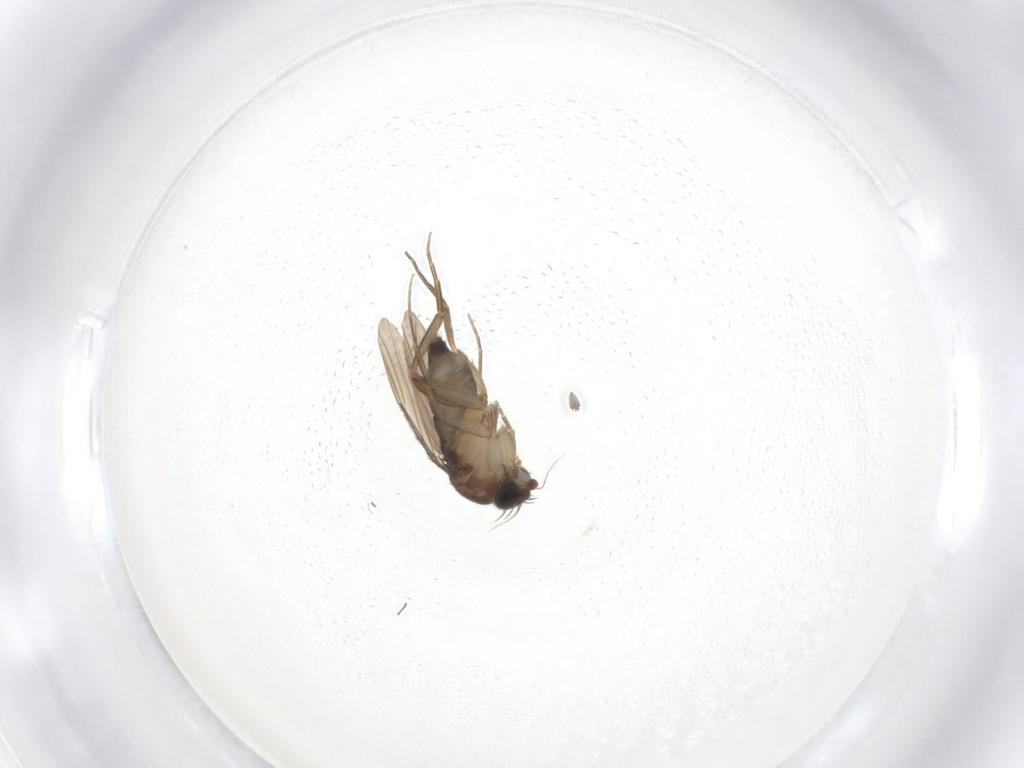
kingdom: Animalia
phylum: Arthropoda
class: Insecta
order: Diptera
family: Phoridae
